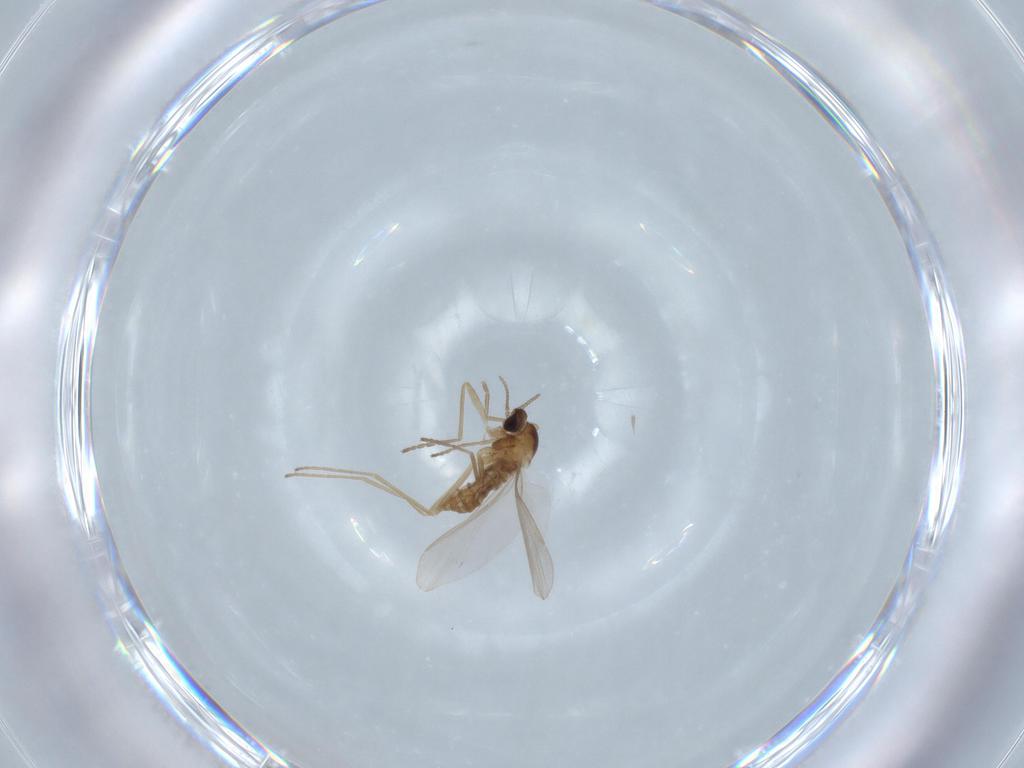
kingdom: Animalia
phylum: Arthropoda
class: Insecta
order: Diptera
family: Cecidomyiidae
